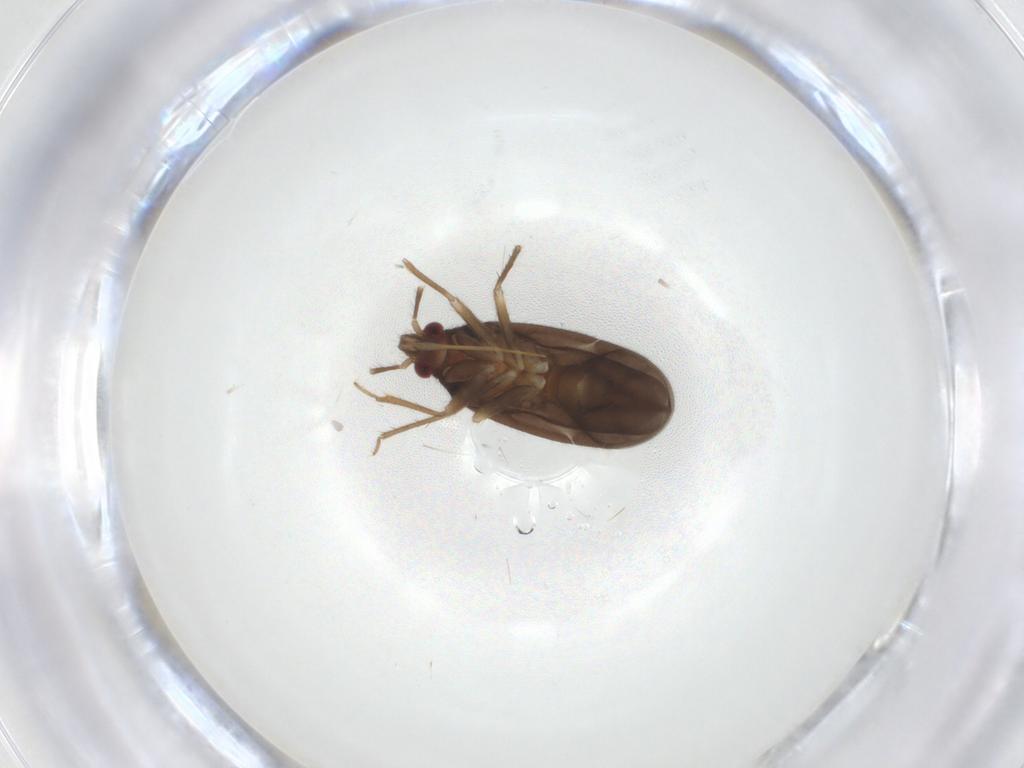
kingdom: Animalia
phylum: Arthropoda
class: Insecta
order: Hemiptera
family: Ceratocombidae
